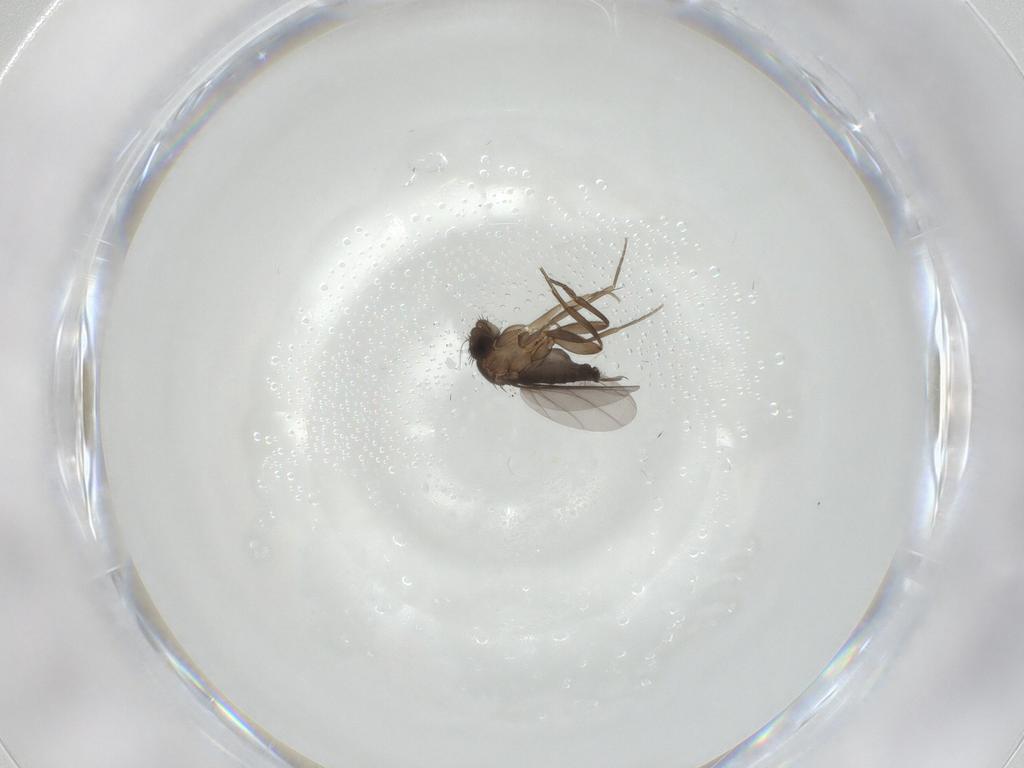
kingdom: Animalia
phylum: Arthropoda
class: Insecta
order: Diptera
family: Phoridae
